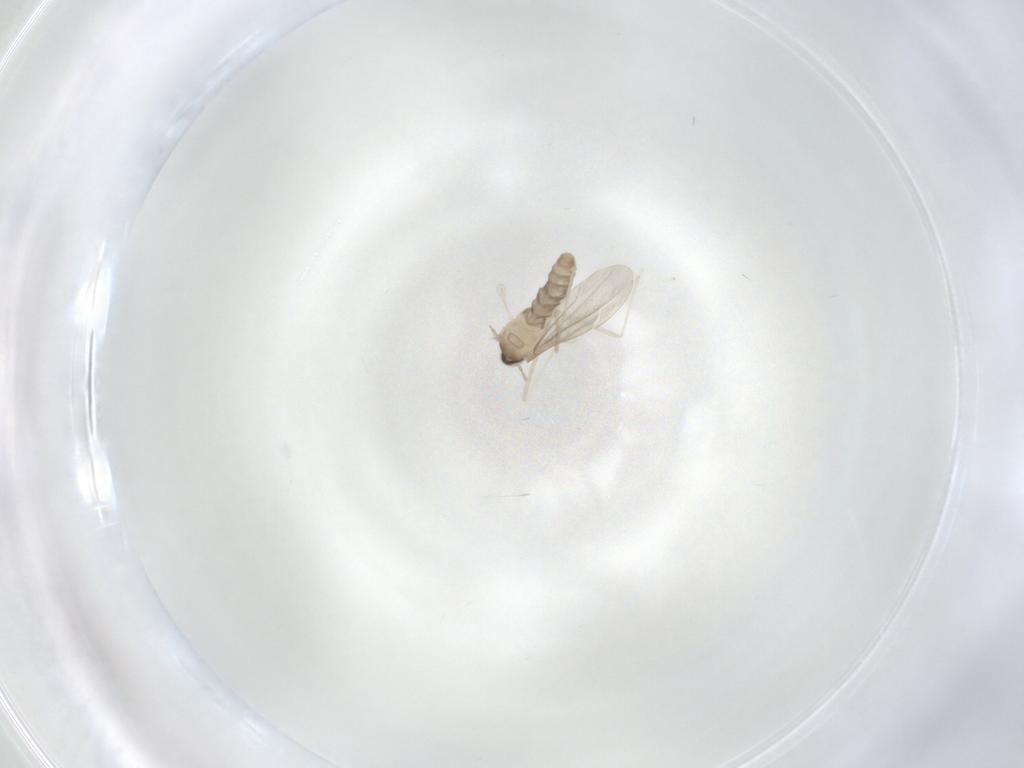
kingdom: Animalia
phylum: Arthropoda
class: Insecta
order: Diptera
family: Cecidomyiidae
